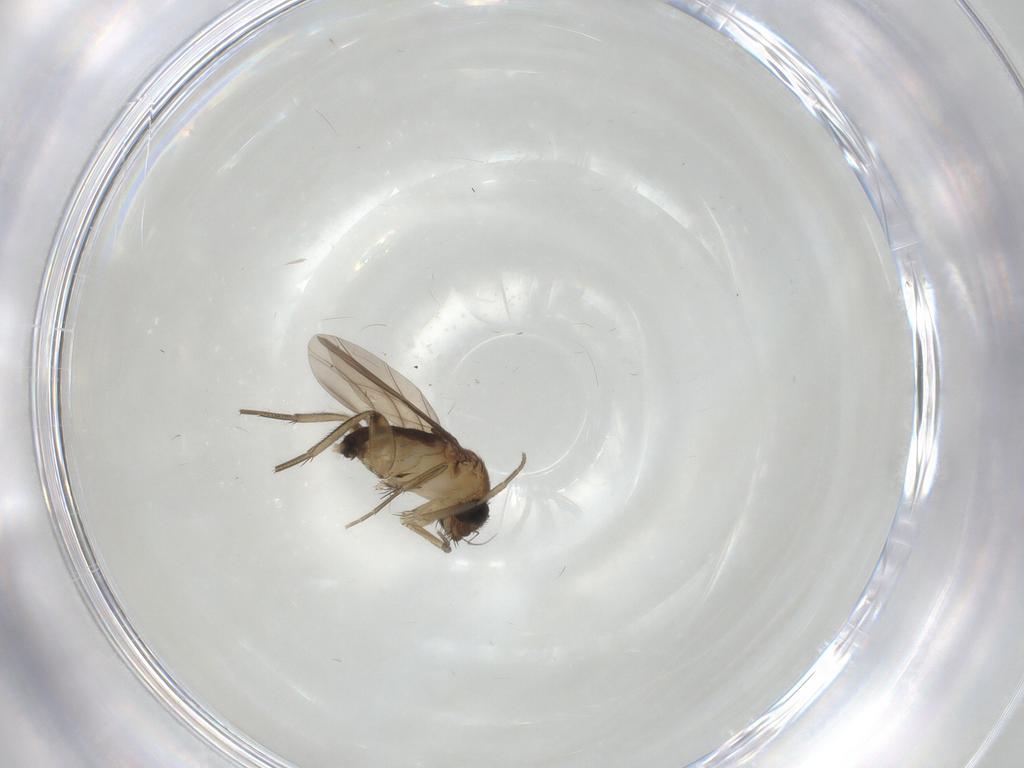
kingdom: Animalia
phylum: Arthropoda
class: Insecta
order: Diptera
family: Phoridae
